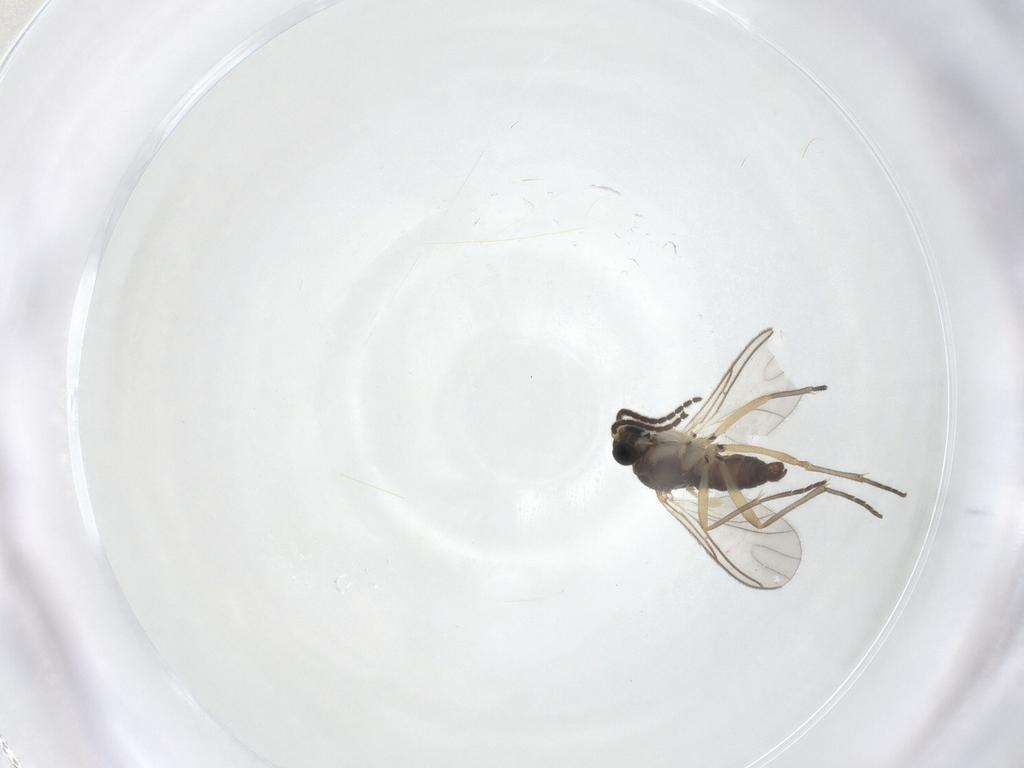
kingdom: Animalia
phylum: Arthropoda
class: Insecta
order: Diptera
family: Sciaridae
